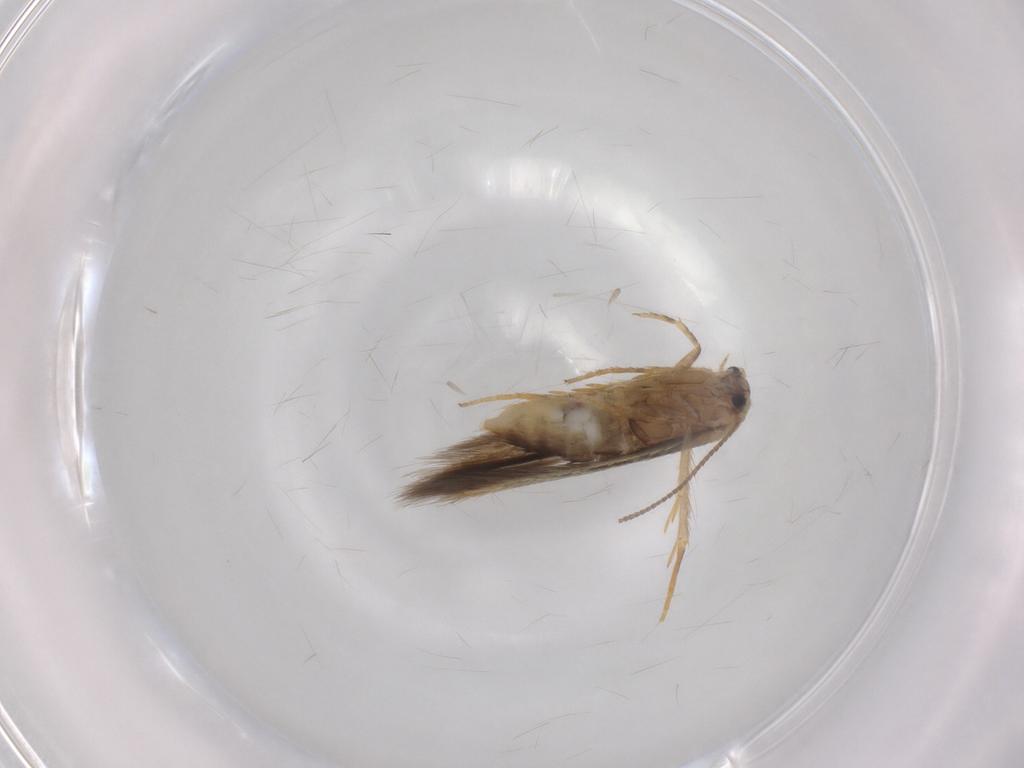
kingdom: Animalia
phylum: Arthropoda
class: Insecta
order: Lepidoptera
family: Nepticulidae
